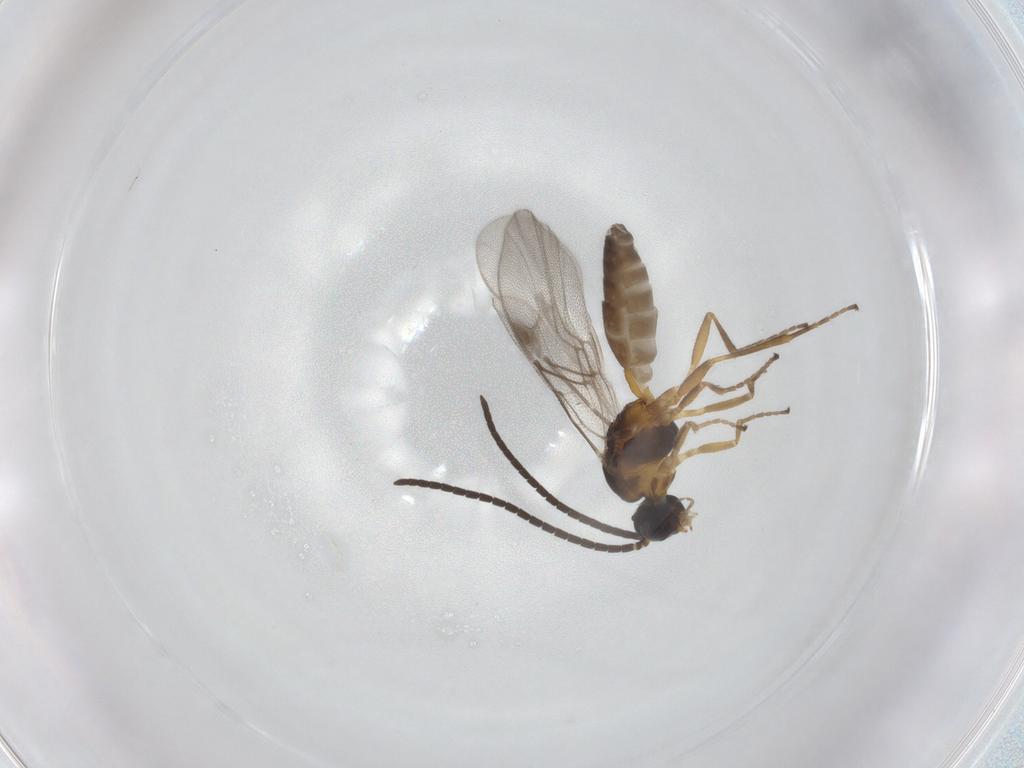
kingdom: Animalia
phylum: Arthropoda
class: Insecta
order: Hymenoptera
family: Braconidae
